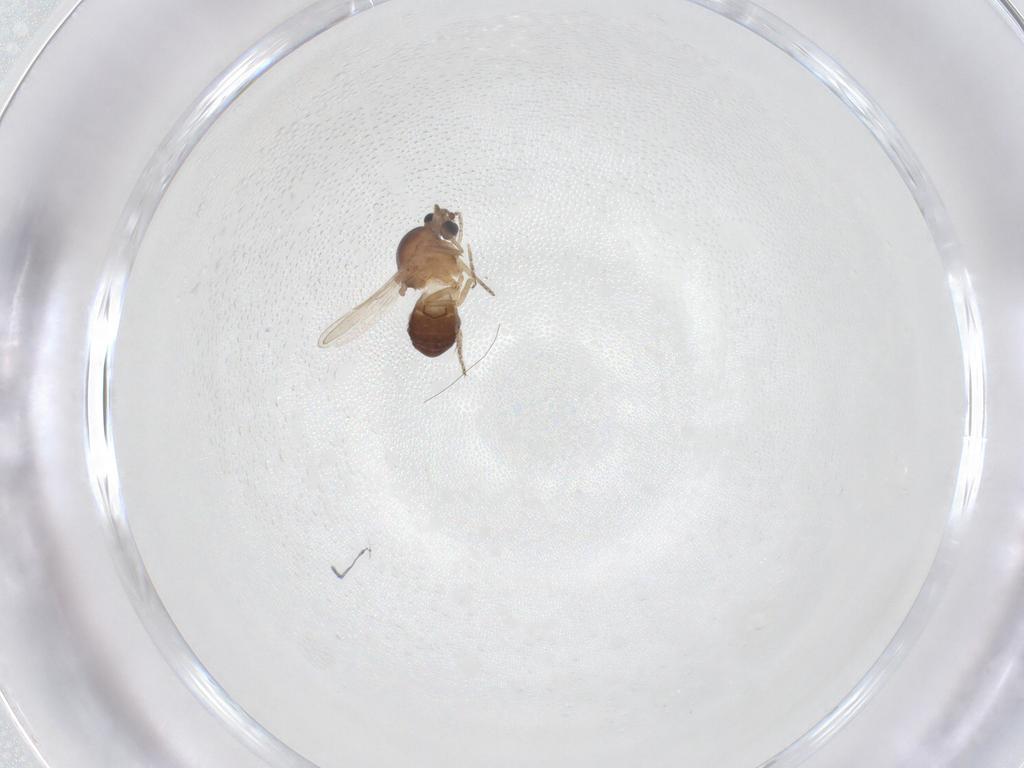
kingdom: Animalia
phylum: Arthropoda
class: Insecta
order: Diptera
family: Ceratopogonidae
